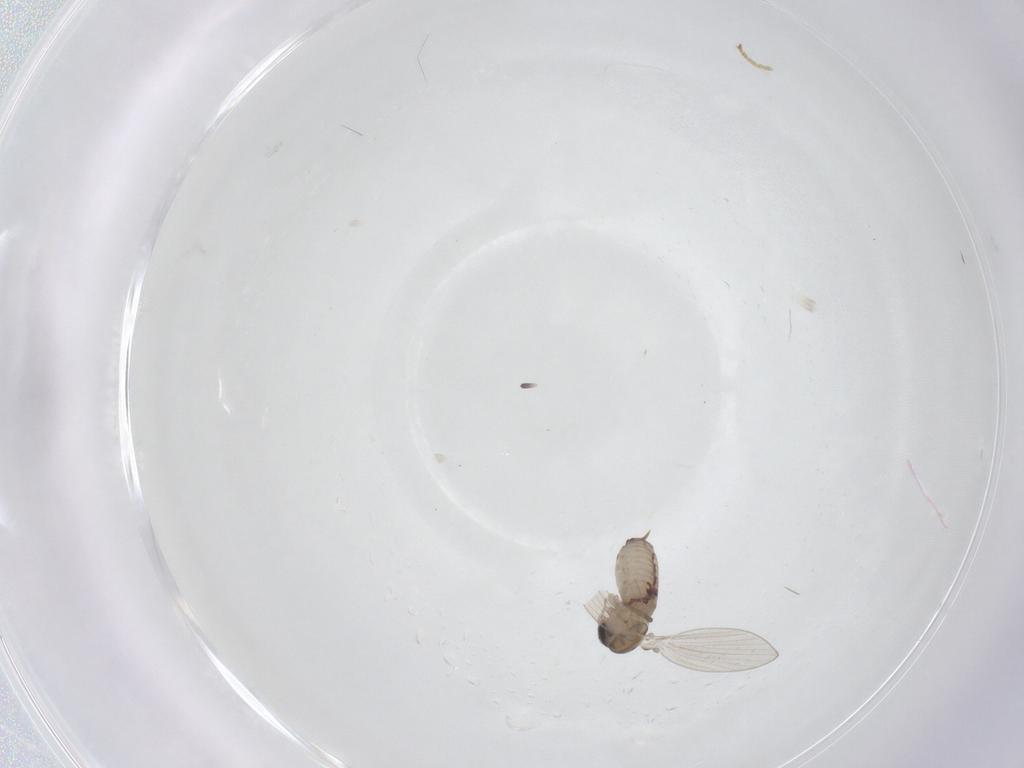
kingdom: Animalia
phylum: Arthropoda
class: Insecta
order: Diptera
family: Psychodidae
